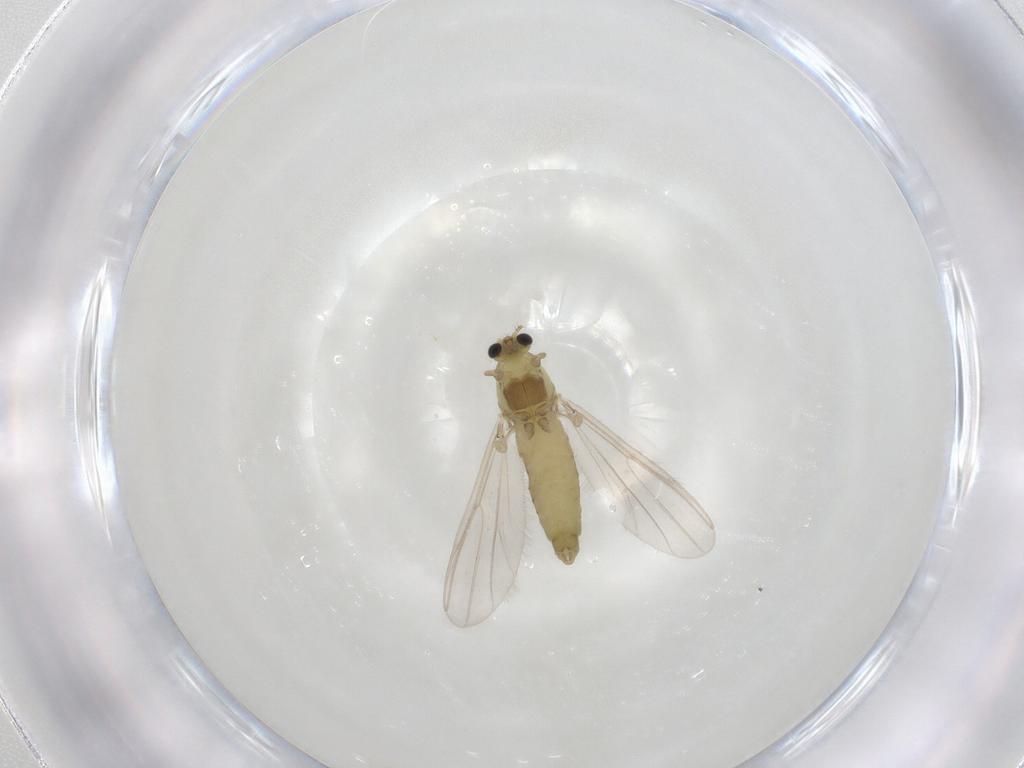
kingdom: Animalia
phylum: Arthropoda
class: Insecta
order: Diptera
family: Chironomidae
